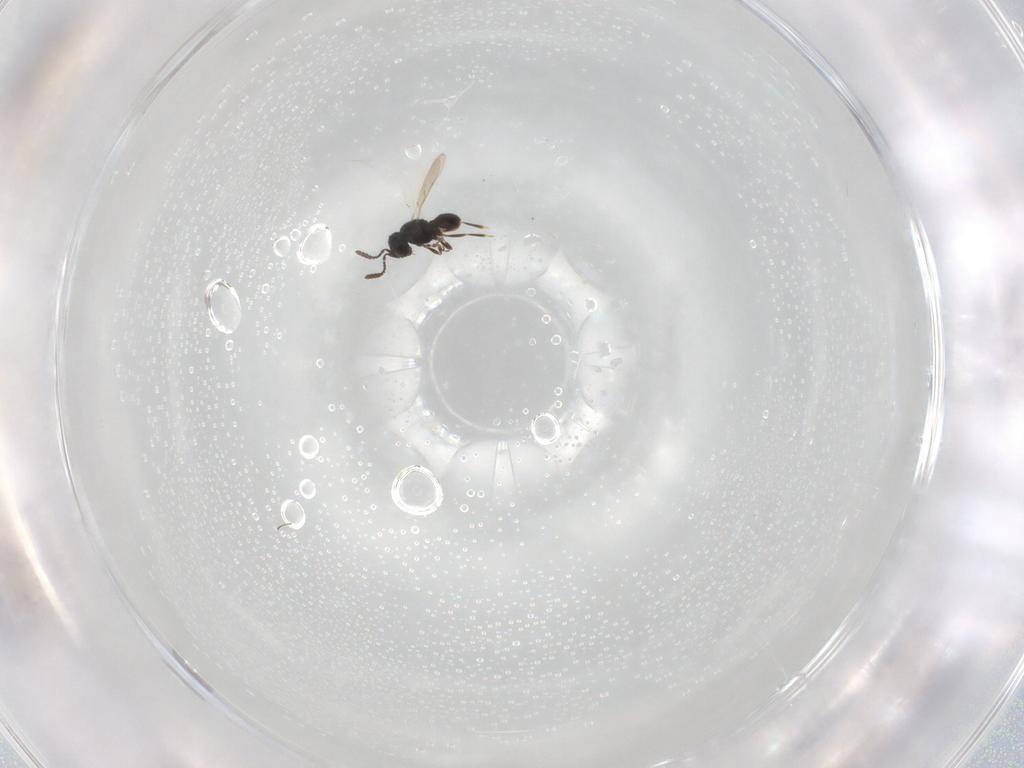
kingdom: Animalia
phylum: Arthropoda
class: Insecta
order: Hymenoptera
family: Scelionidae
